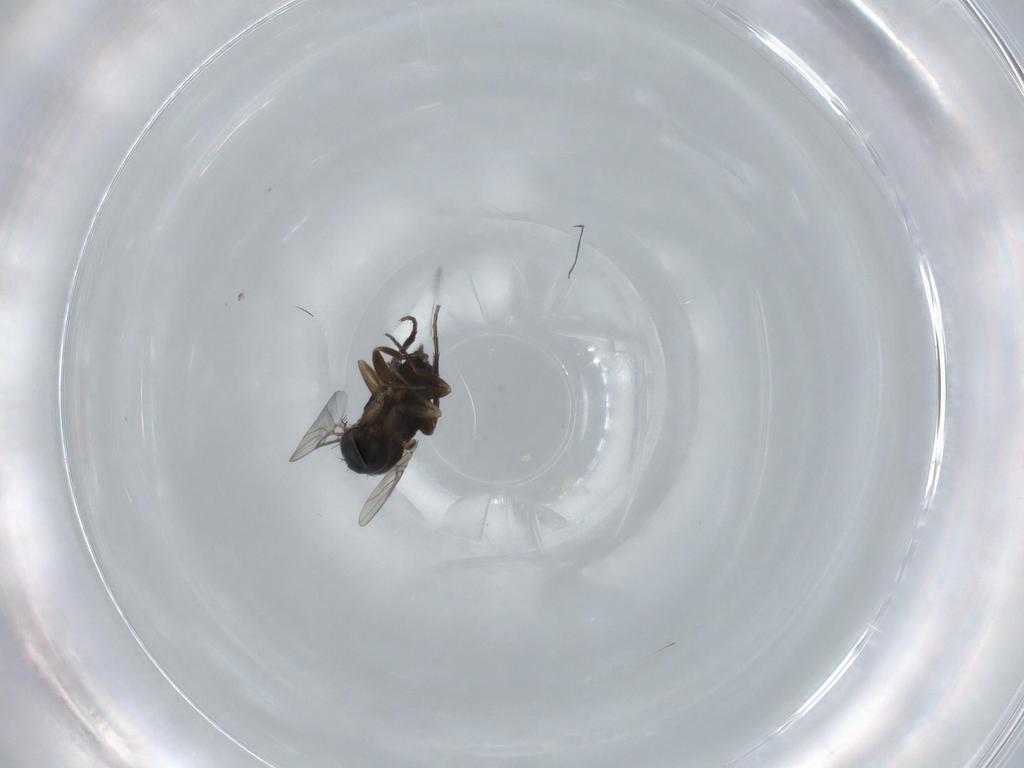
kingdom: Animalia
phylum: Arthropoda
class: Insecta
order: Diptera
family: Phoridae
